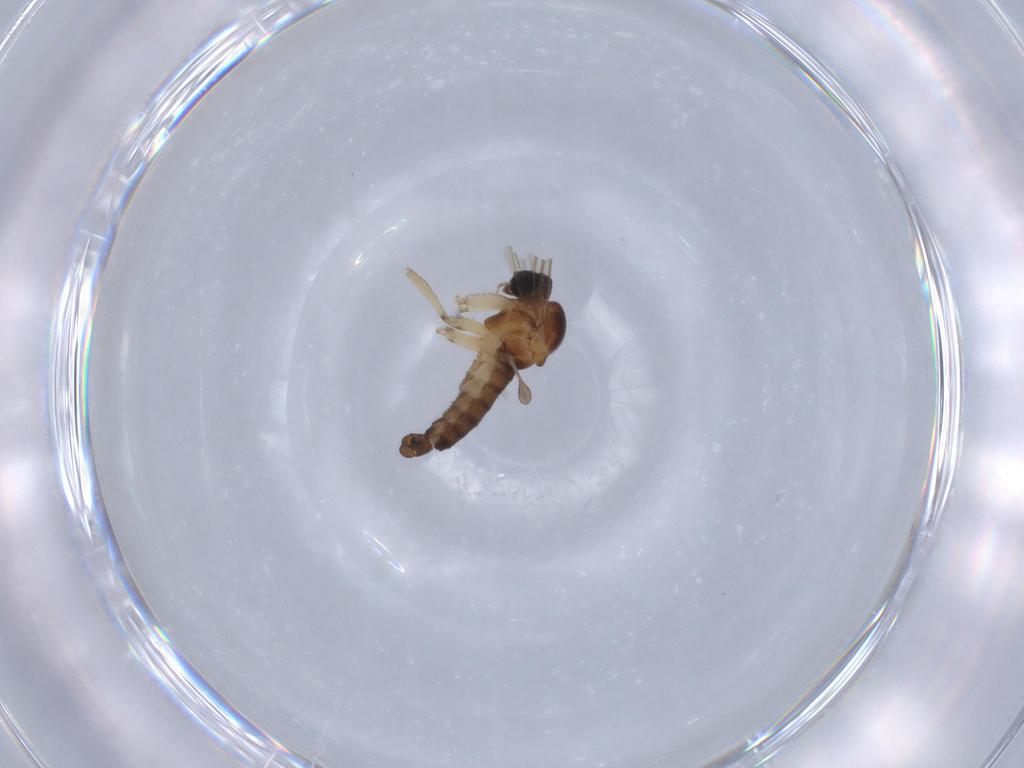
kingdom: Animalia
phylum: Arthropoda
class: Insecta
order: Diptera
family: Sciaridae
